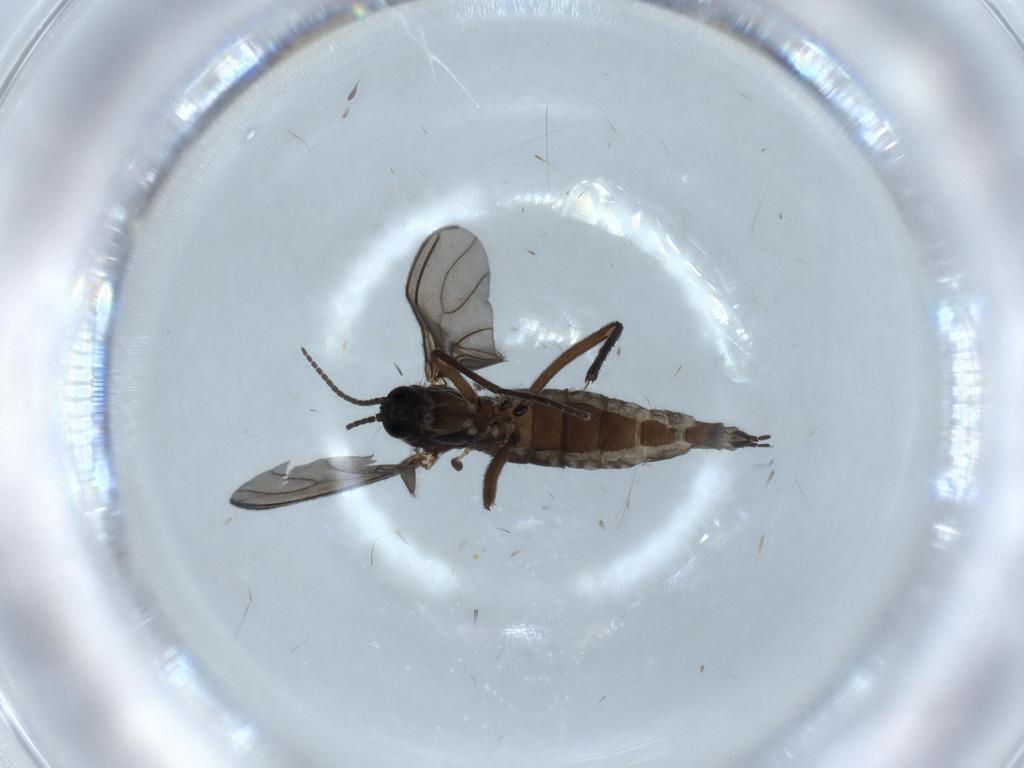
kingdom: Animalia
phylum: Arthropoda
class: Insecta
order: Diptera
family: Sciaridae
